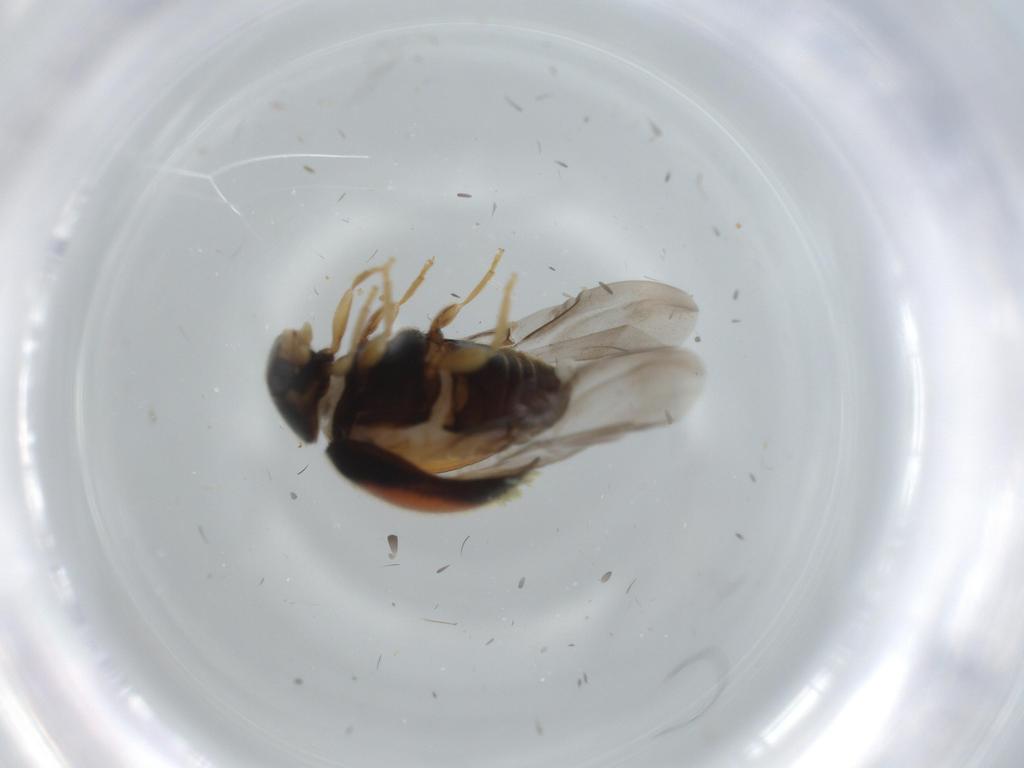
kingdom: Animalia
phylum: Arthropoda
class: Insecta
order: Coleoptera
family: Coccinellidae
